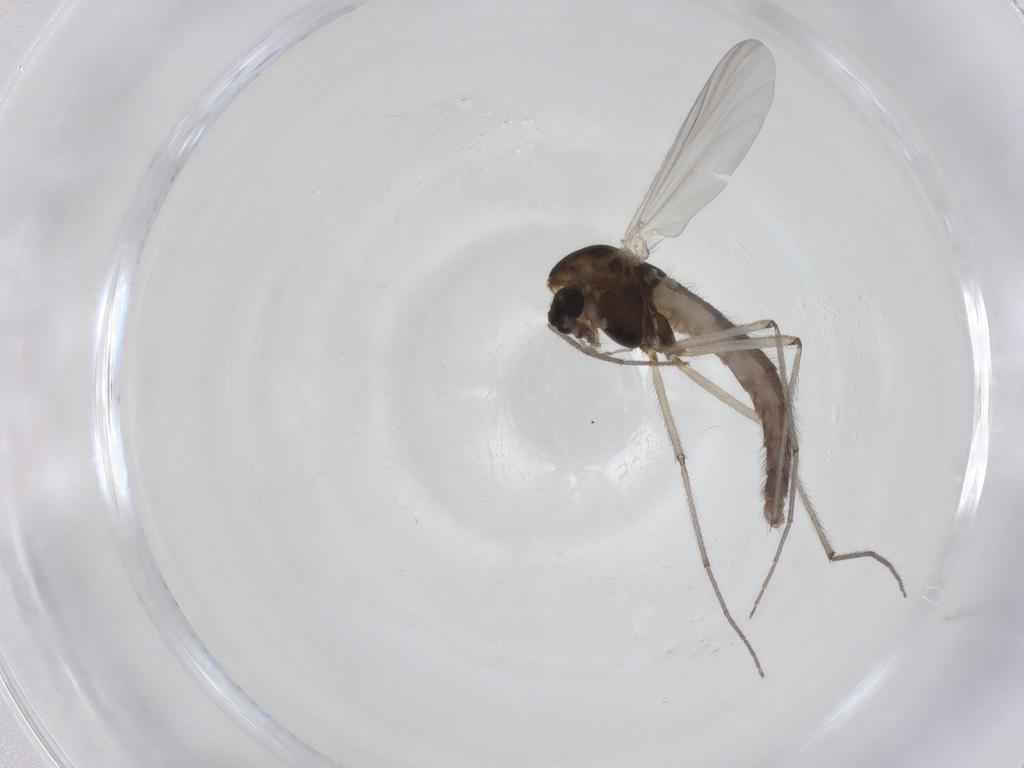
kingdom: Animalia
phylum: Arthropoda
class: Insecta
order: Diptera
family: Chironomidae
